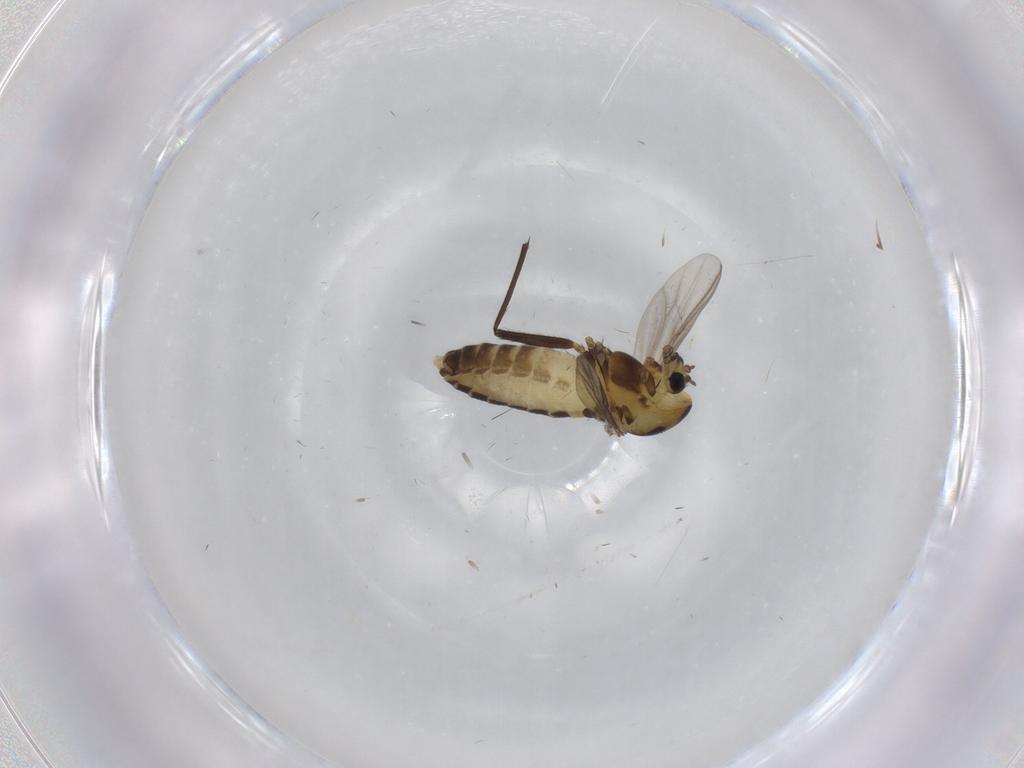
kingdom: Animalia
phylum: Arthropoda
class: Insecta
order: Diptera
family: Chironomidae
